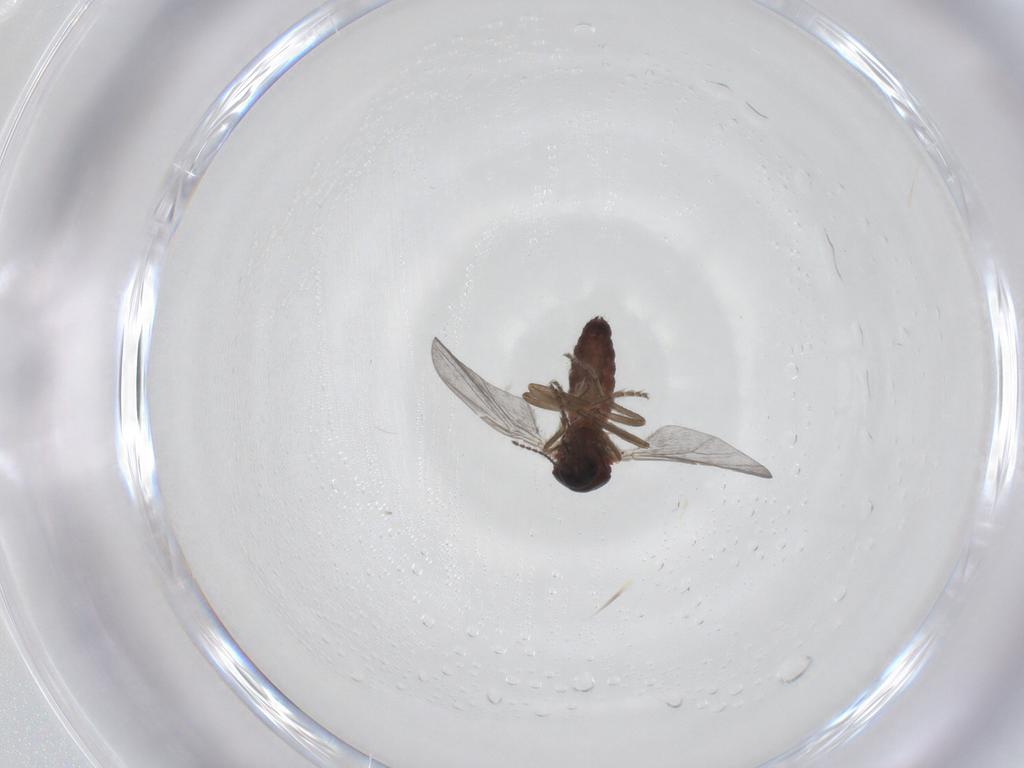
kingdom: Animalia
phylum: Arthropoda
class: Insecta
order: Diptera
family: Ceratopogonidae
